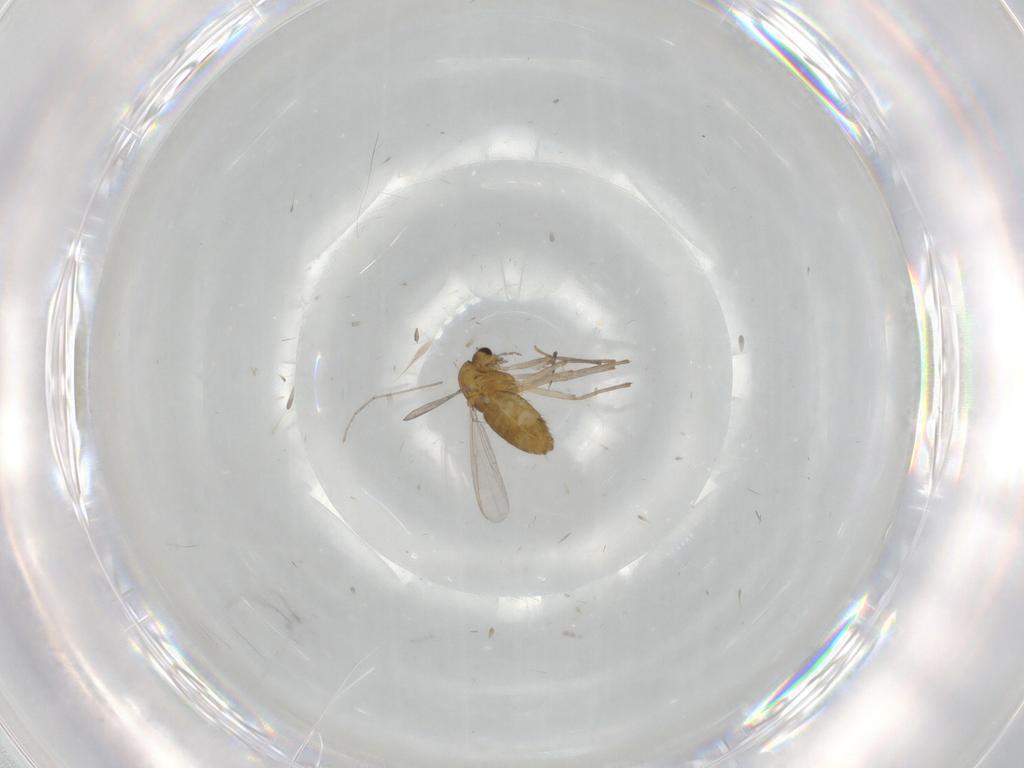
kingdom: Animalia
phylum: Arthropoda
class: Insecta
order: Diptera
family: Cecidomyiidae
